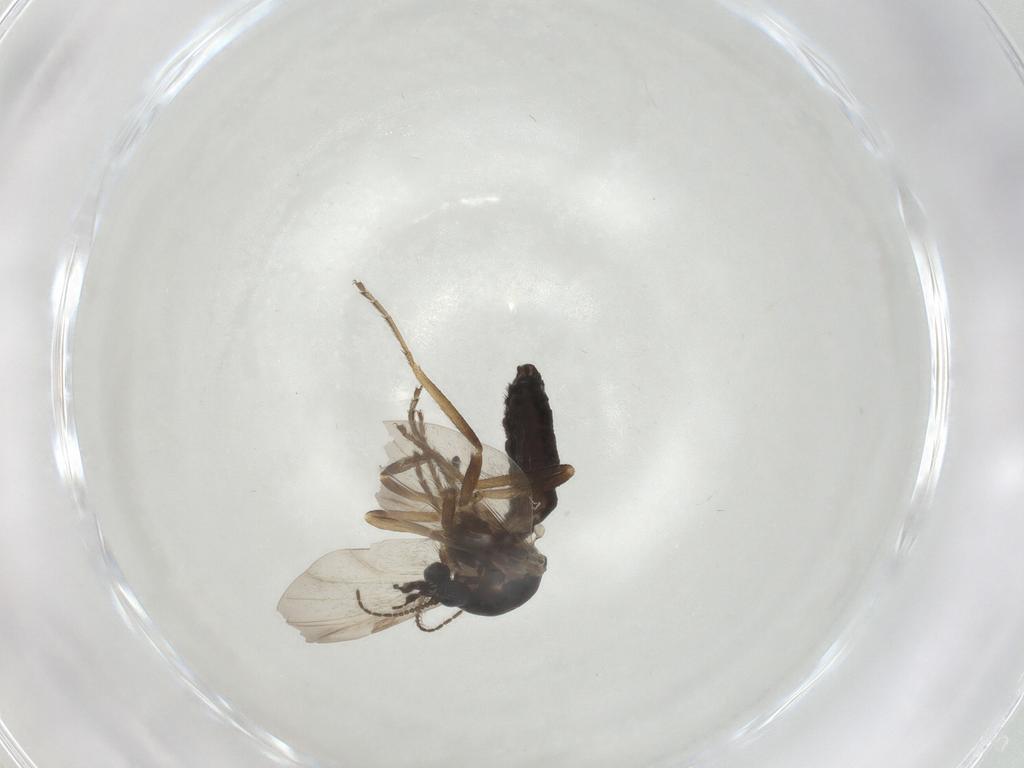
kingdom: Animalia
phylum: Arthropoda
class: Insecta
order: Diptera
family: Ceratopogonidae
